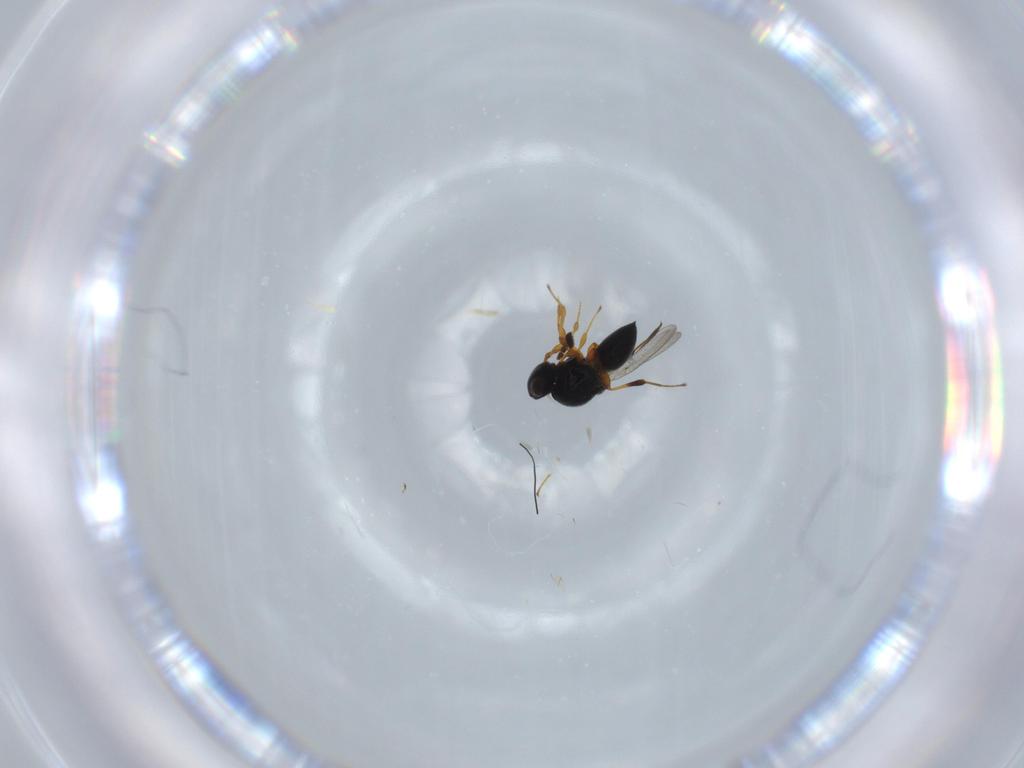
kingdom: Animalia
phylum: Arthropoda
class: Insecta
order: Hymenoptera
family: Platygastridae
